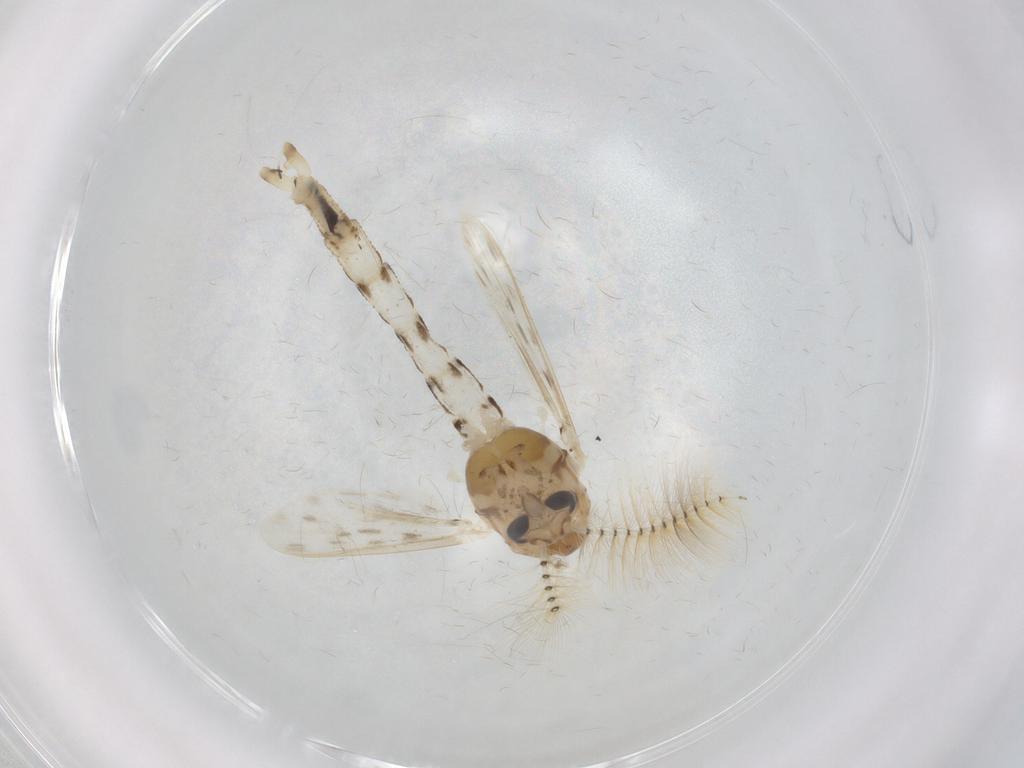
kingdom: Animalia
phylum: Arthropoda
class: Insecta
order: Diptera
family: Chaoboridae
